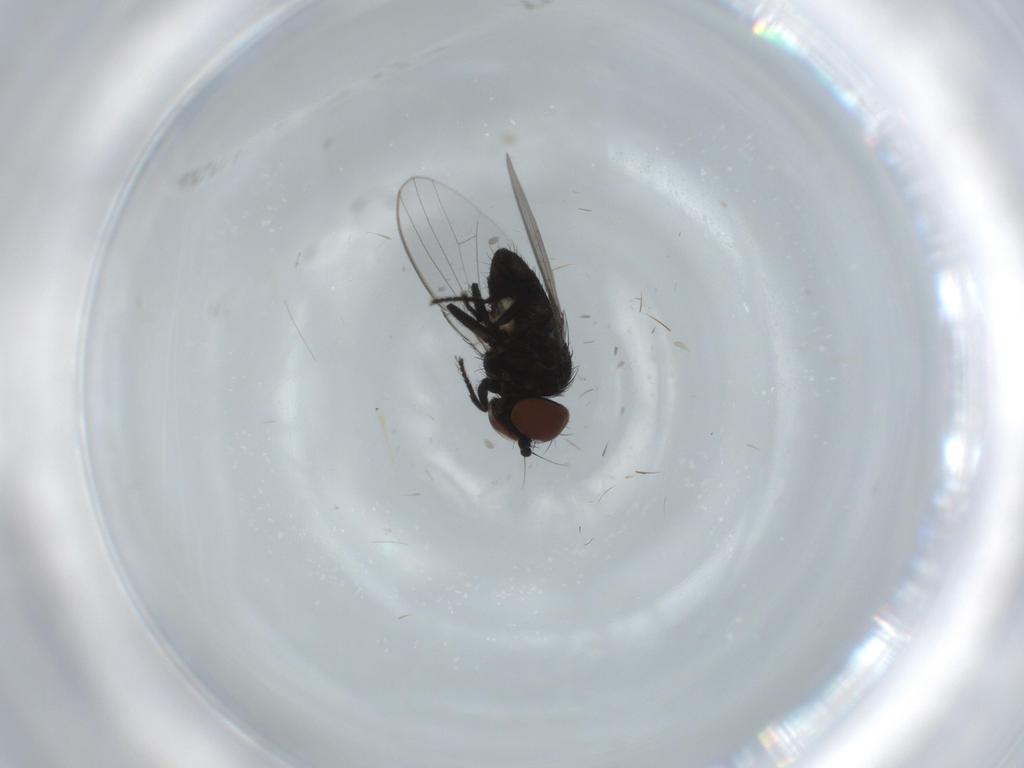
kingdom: Animalia
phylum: Arthropoda
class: Insecta
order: Diptera
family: Milichiidae
